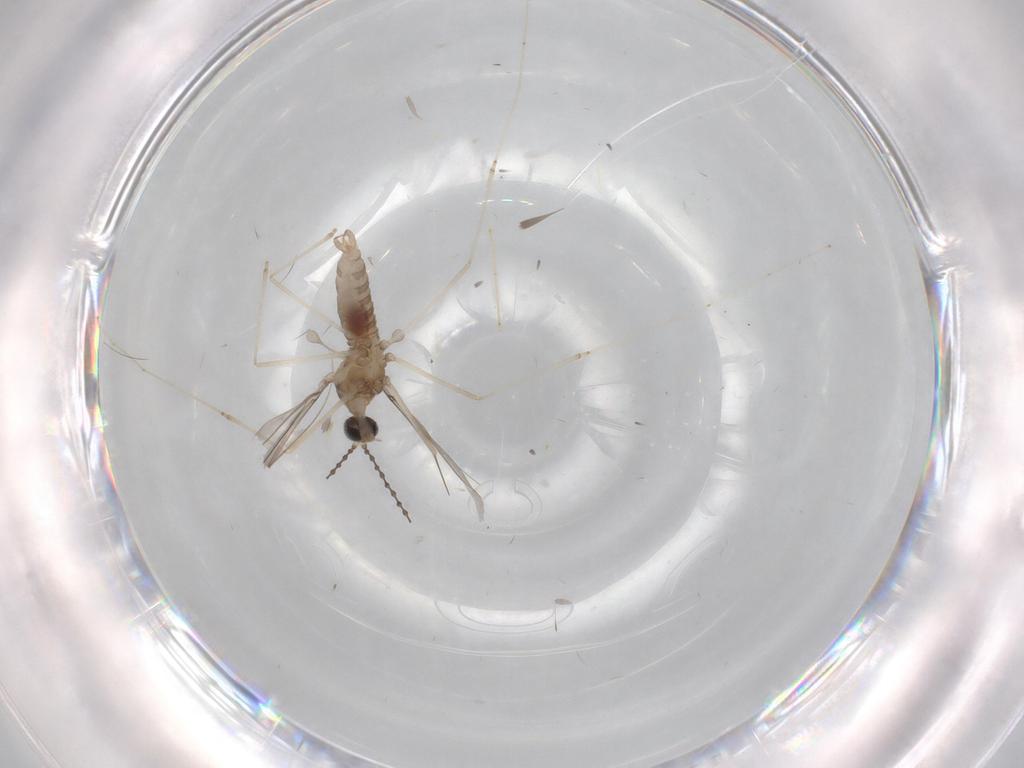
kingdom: Animalia
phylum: Arthropoda
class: Insecta
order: Diptera
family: Cecidomyiidae
